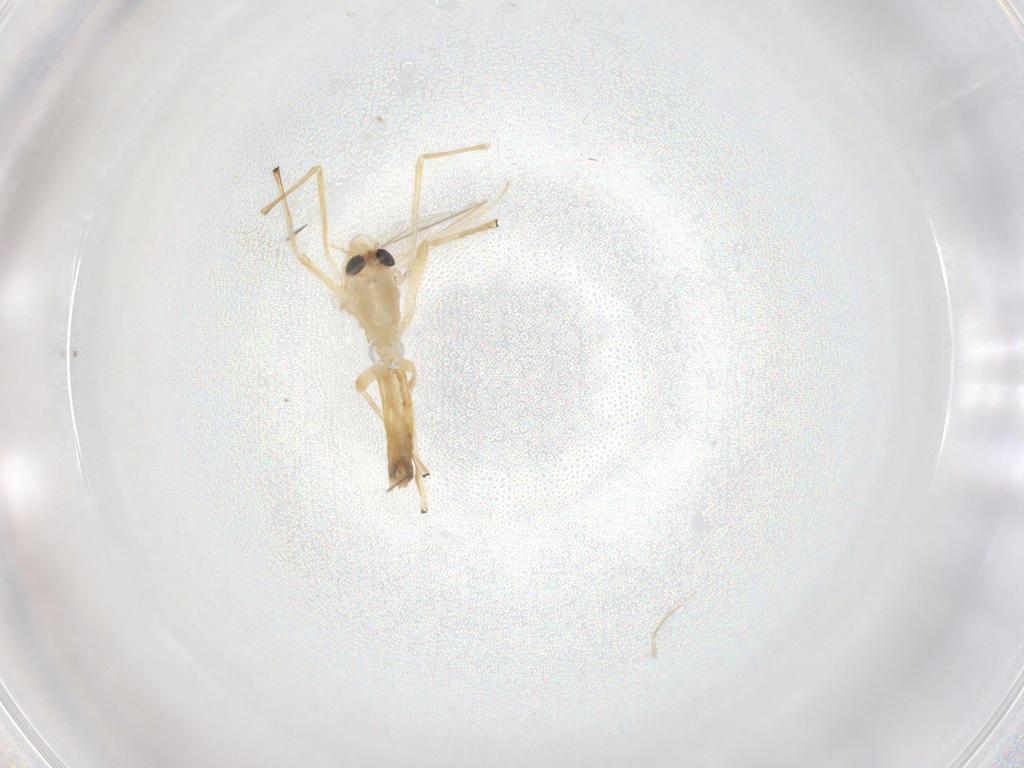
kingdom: Animalia
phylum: Arthropoda
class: Insecta
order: Diptera
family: Chironomidae
